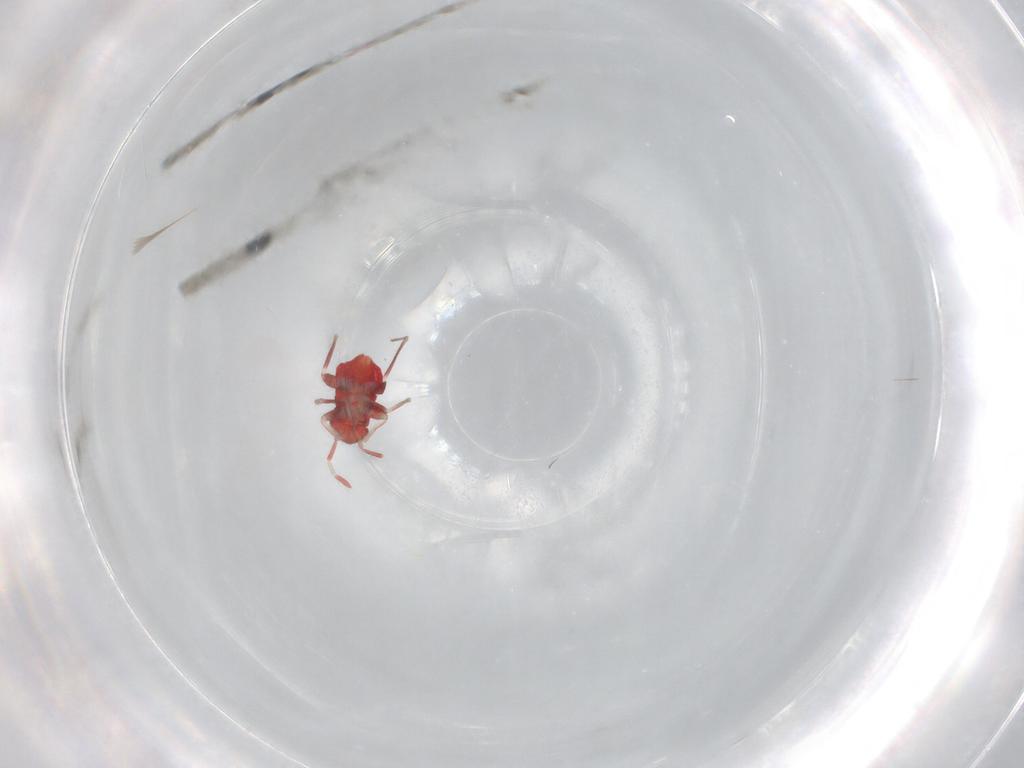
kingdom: Animalia
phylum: Arthropoda
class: Insecta
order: Hemiptera
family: Miridae
